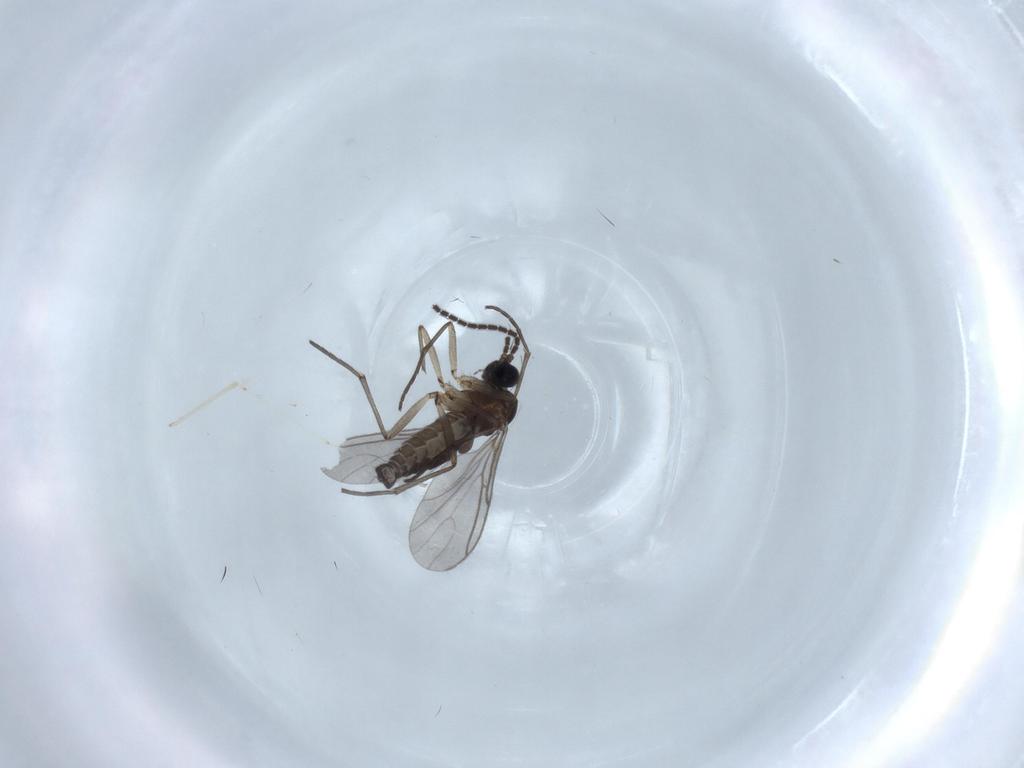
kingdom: Animalia
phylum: Arthropoda
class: Insecta
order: Diptera
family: Sciaridae
